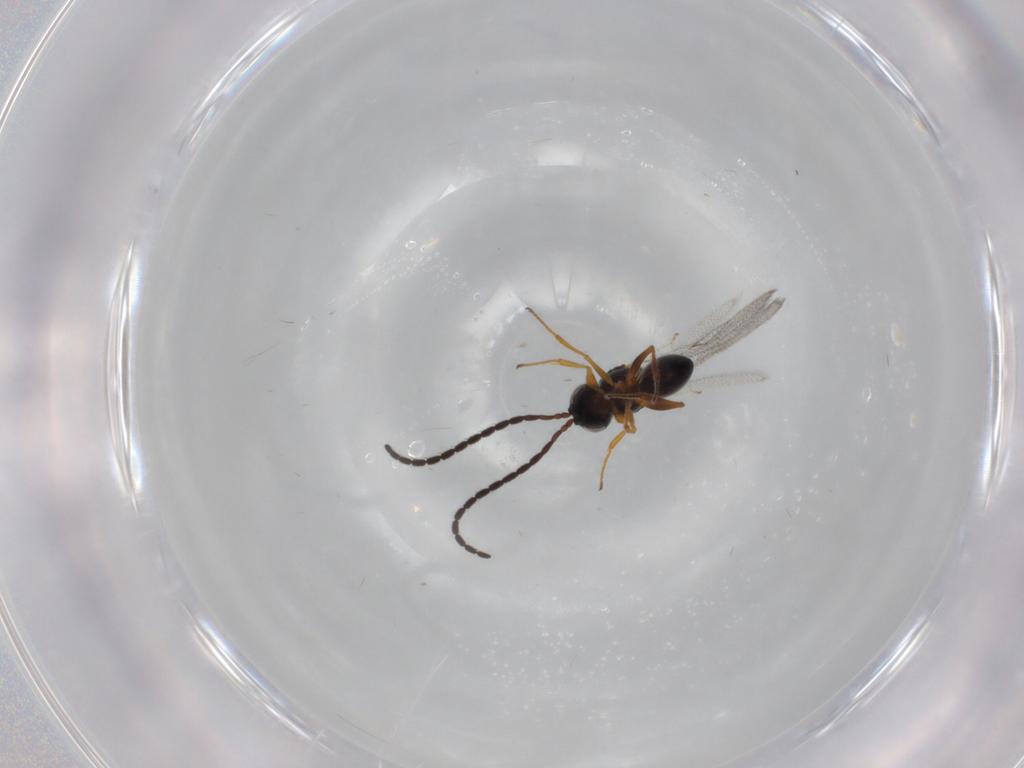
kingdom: Animalia
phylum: Arthropoda
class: Insecta
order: Hymenoptera
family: Figitidae
